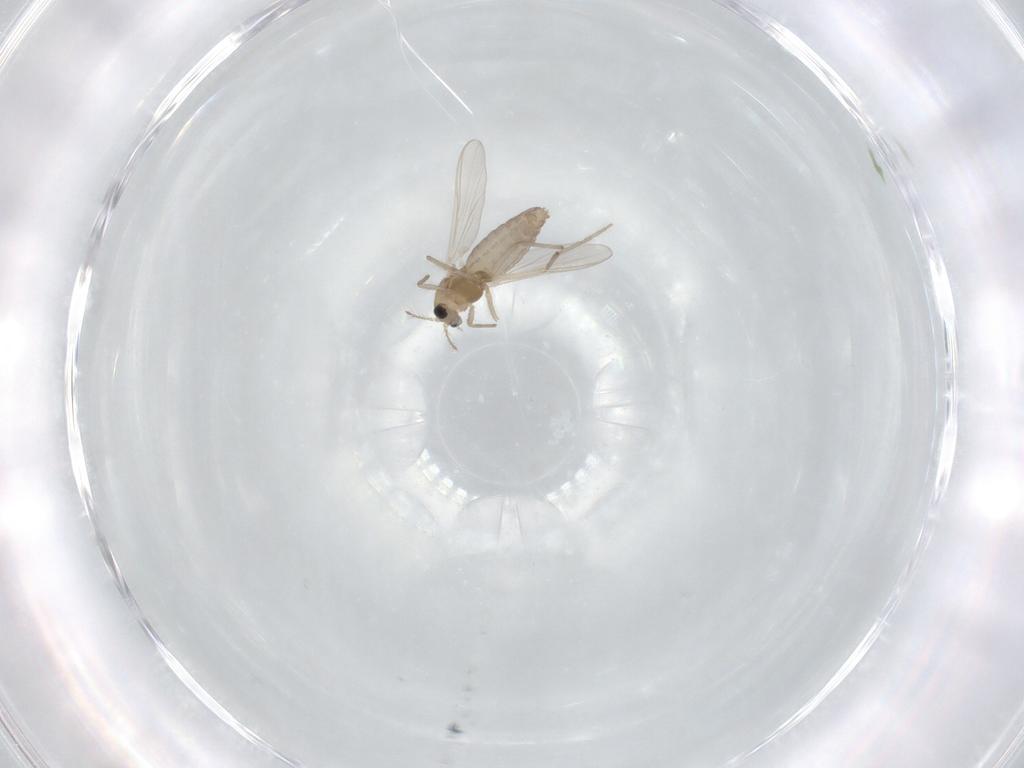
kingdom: Animalia
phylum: Arthropoda
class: Insecta
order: Diptera
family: Chironomidae
